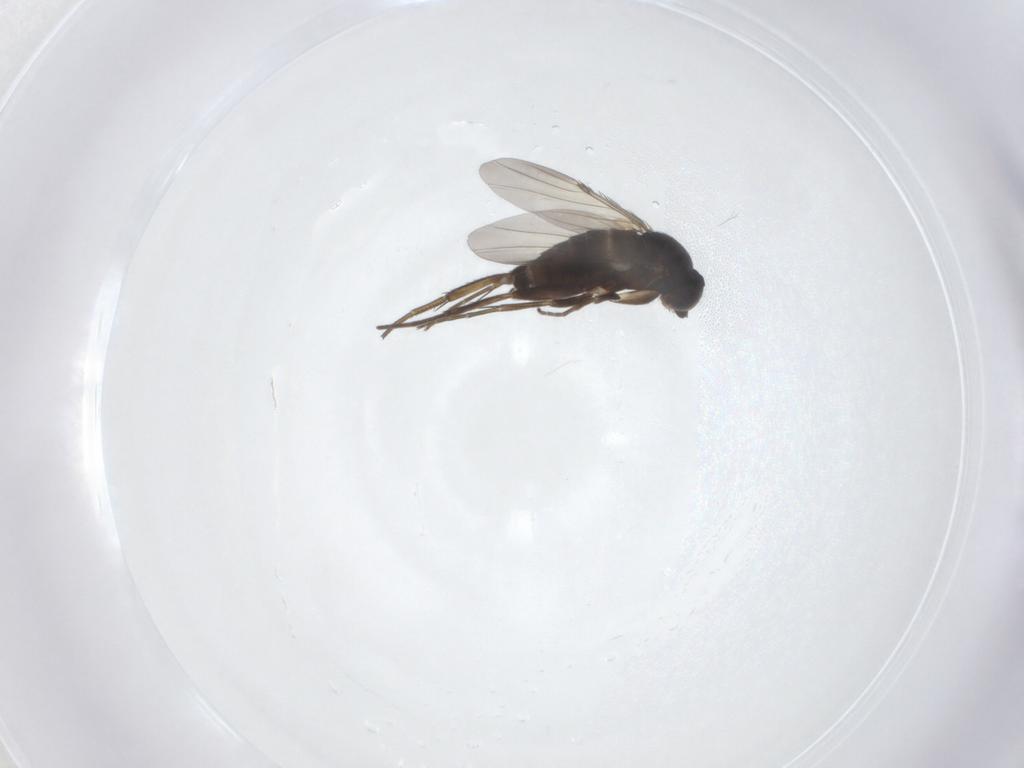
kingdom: Animalia
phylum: Arthropoda
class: Insecta
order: Diptera
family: Phoridae
